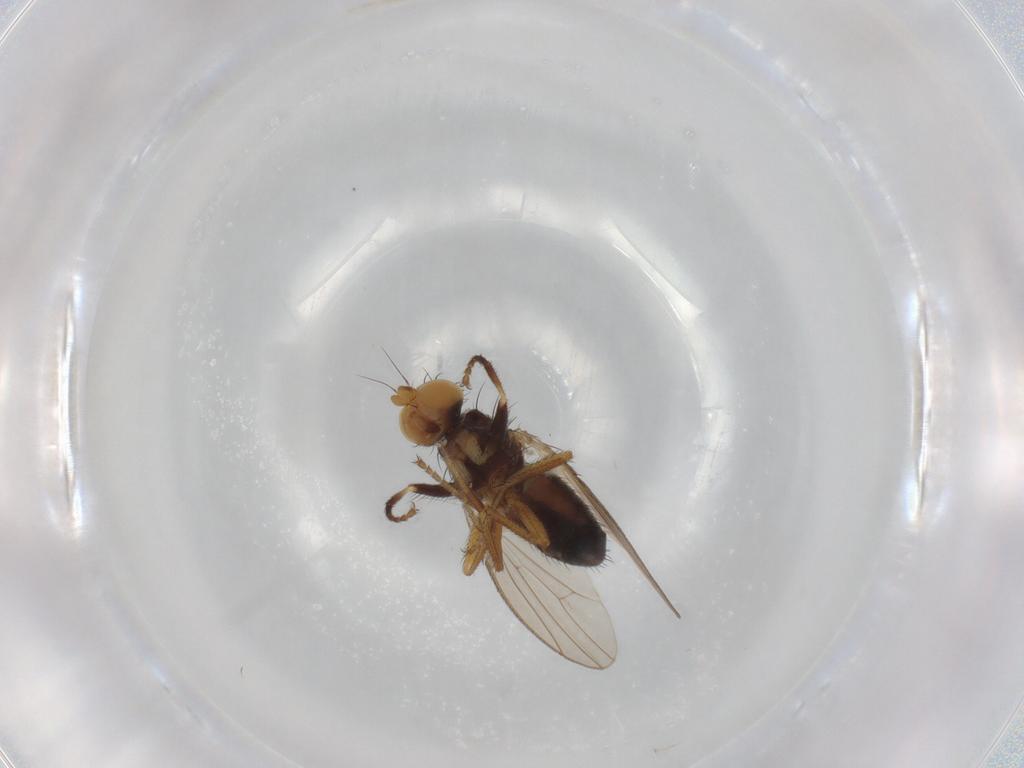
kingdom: Animalia
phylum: Arthropoda
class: Insecta
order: Diptera
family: Heleomyzidae
